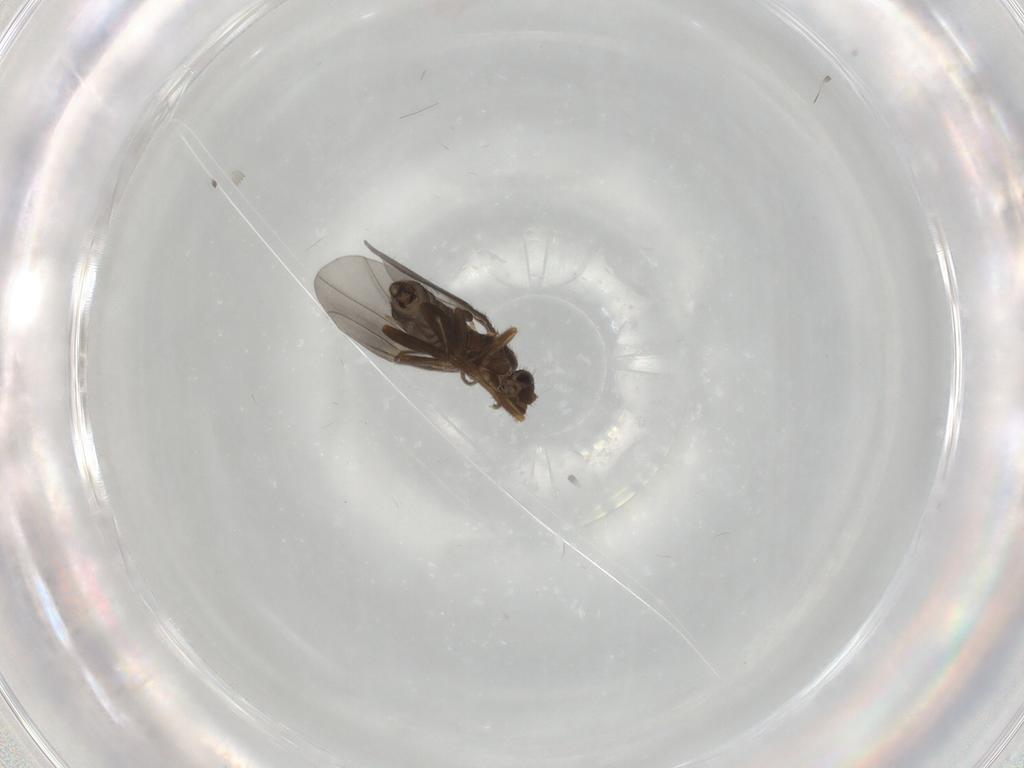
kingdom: Animalia
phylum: Arthropoda
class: Insecta
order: Diptera
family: Phoridae
